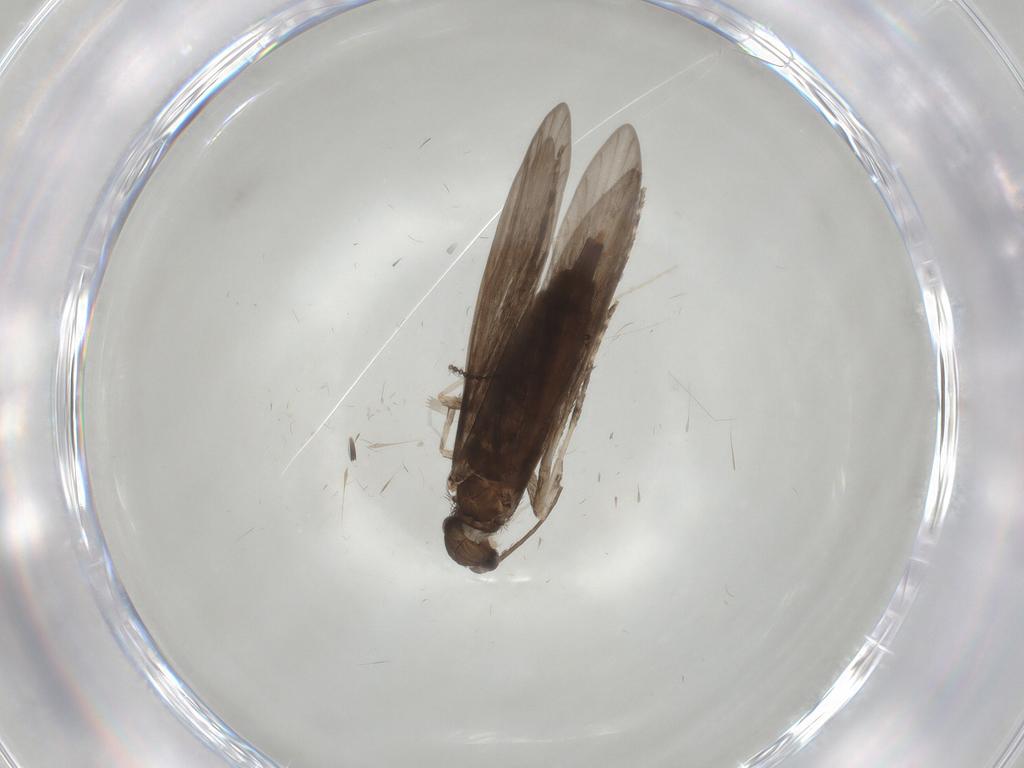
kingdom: Animalia
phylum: Arthropoda
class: Insecta
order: Trichoptera
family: Xiphocentronidae
